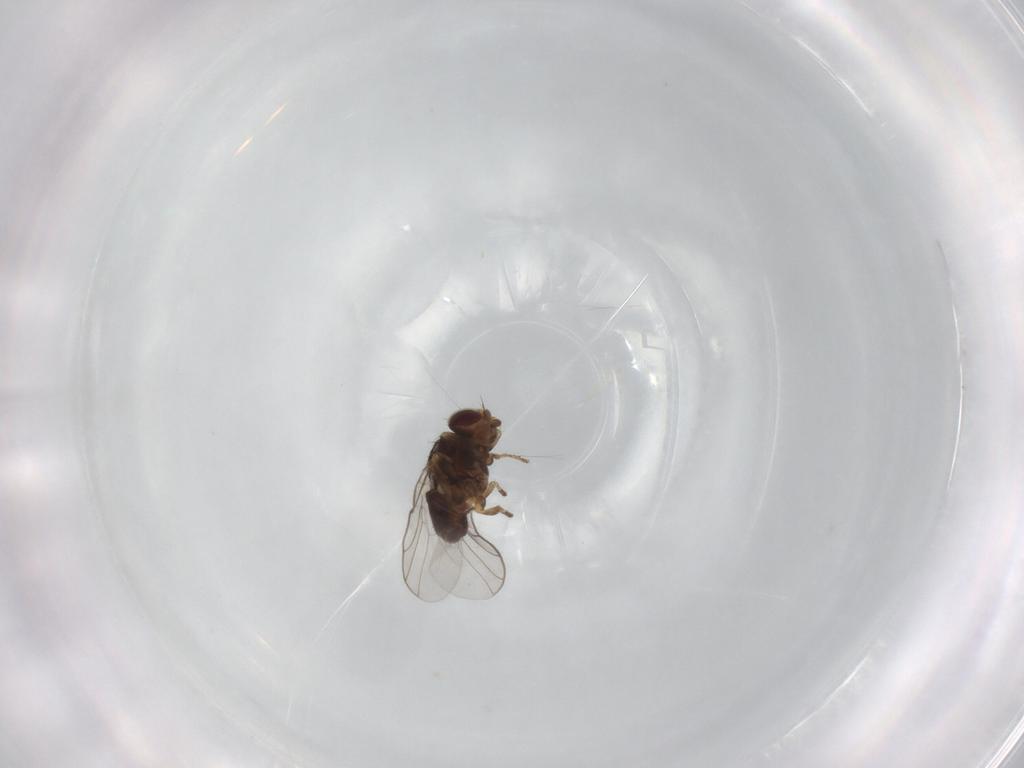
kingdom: Animalia
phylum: Arthropoda
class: Insecta
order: Diptera
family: Chloropidae
